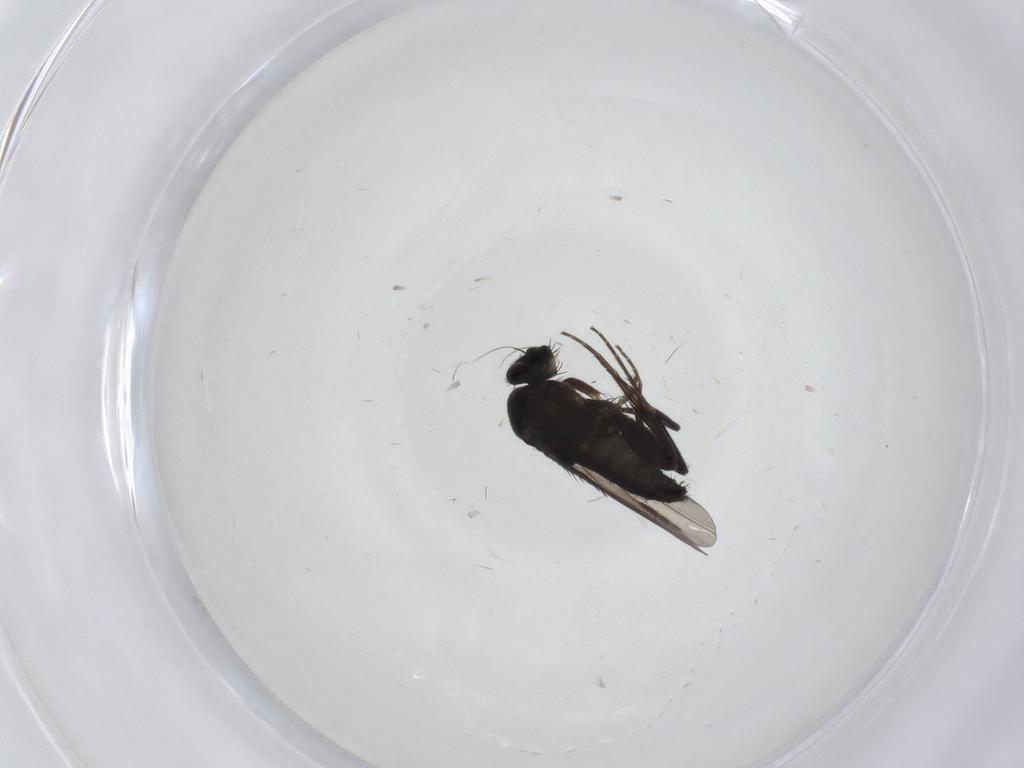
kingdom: Animalia
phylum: Arthropoda
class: Insecta
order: Diptera
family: Phoridae
